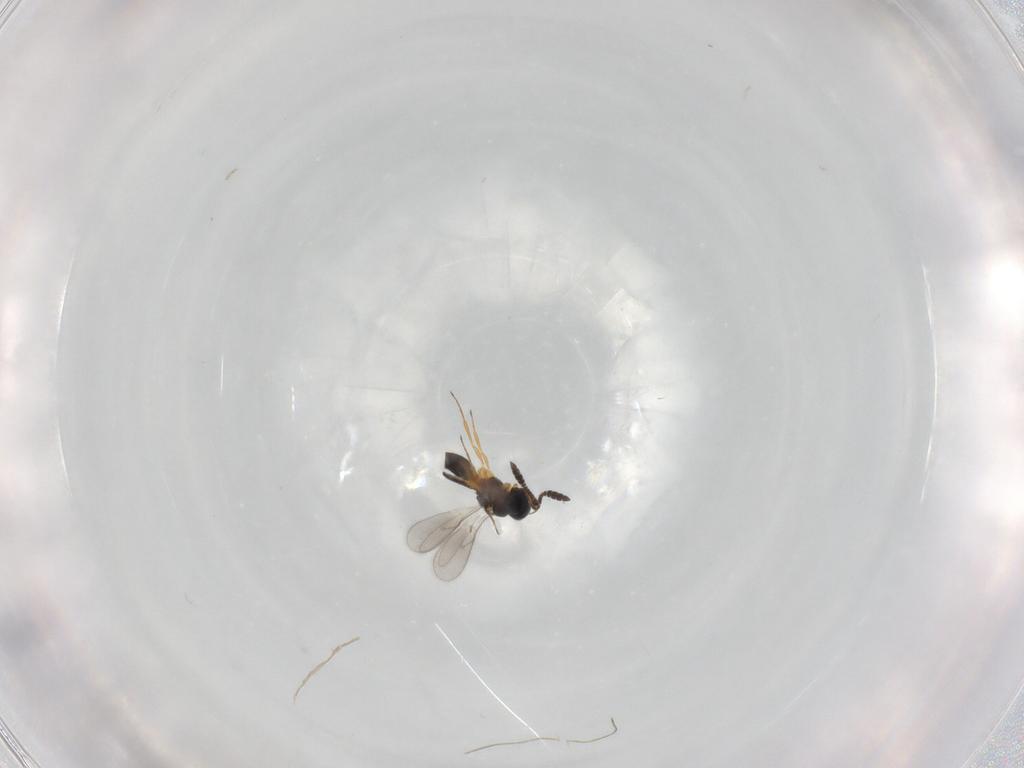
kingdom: Animalia
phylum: Arthropoda
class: Insecta
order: Hymenoptera
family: Scelionidae
